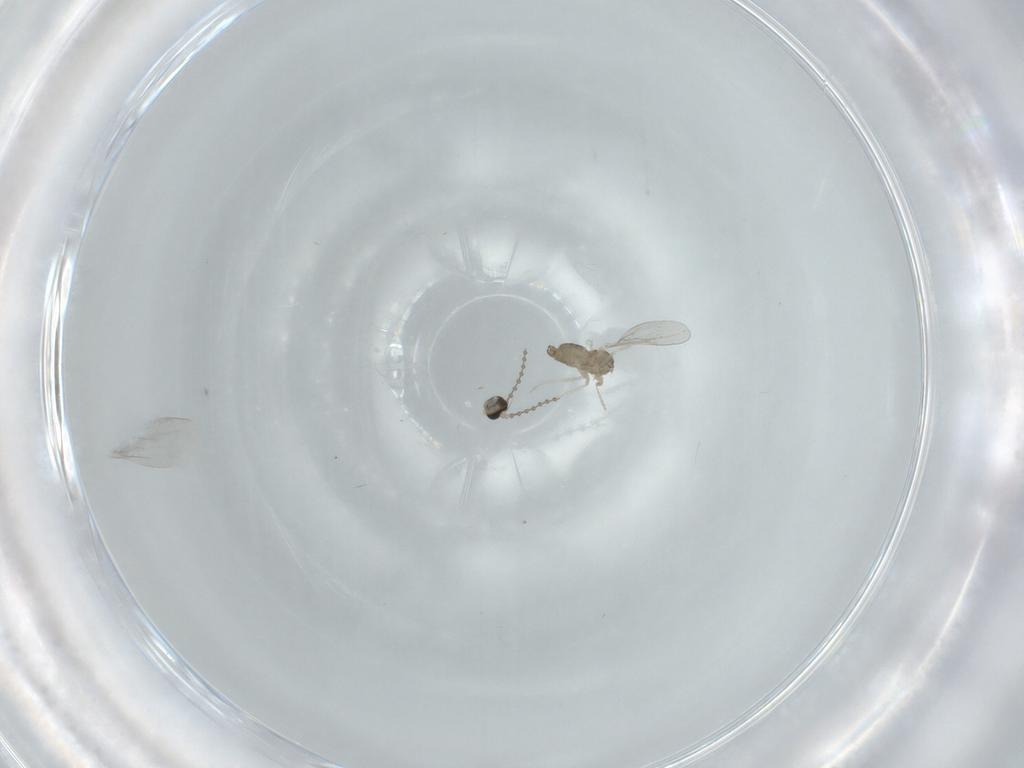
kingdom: Animalia
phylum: Arthropoda
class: Insecta
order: Diptera
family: Cecidomyiidae
